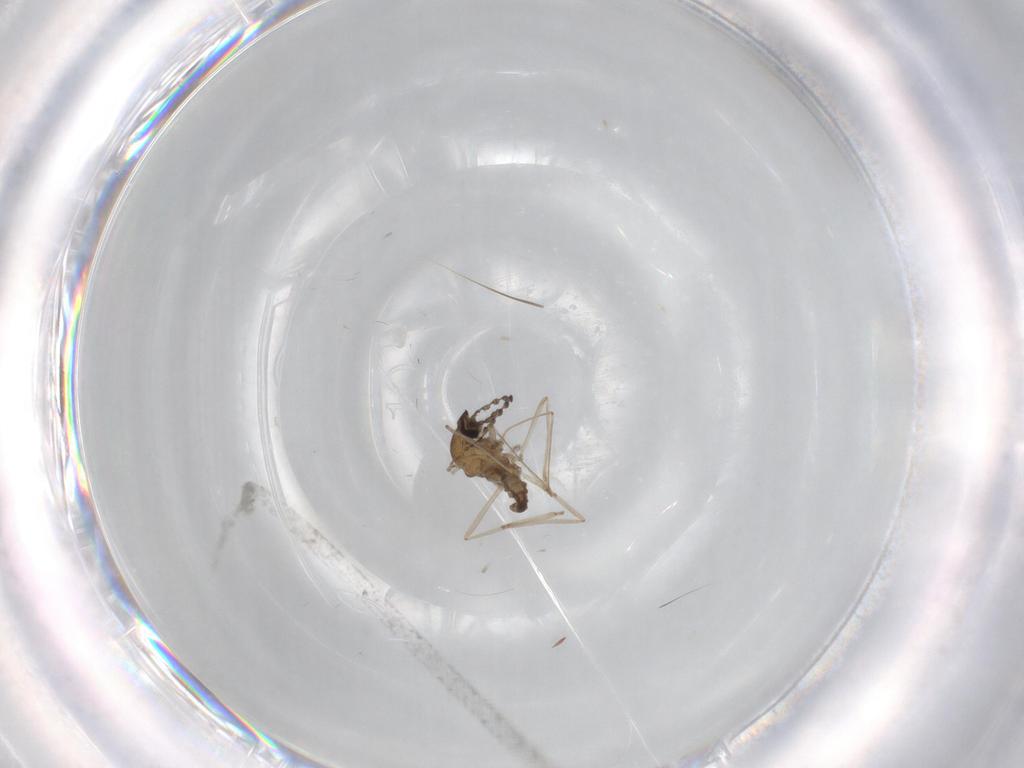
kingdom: Animalia
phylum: Arthropoda
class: Insecta
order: Diptera
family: Cecidomyiidae
